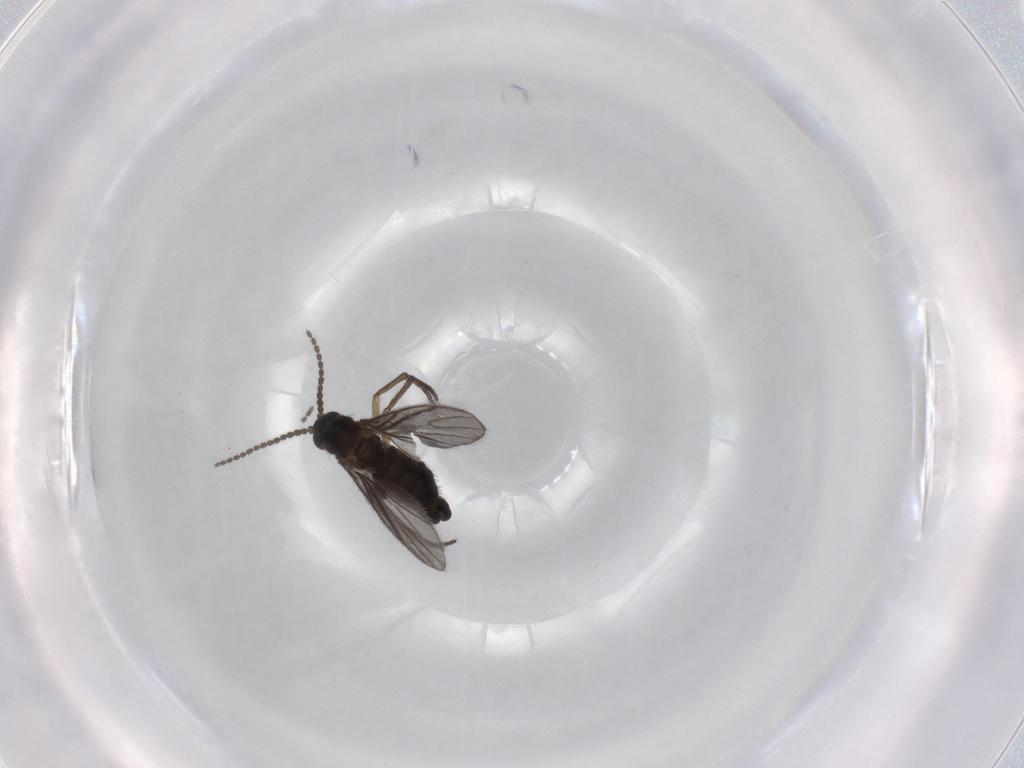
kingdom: Animalia
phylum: Arthropoda
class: Insecta
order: Diptera
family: Sciaridae
